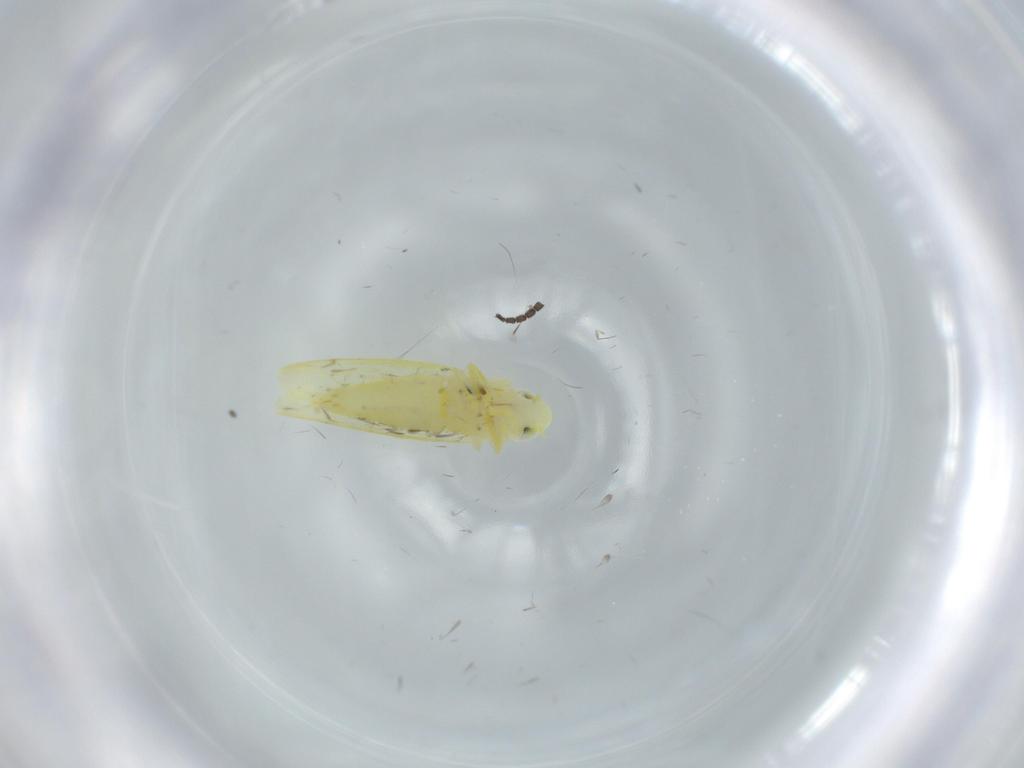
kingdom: Animalia
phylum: Arthropoda
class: Insecta
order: Hemiptera
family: Cicadellidae
